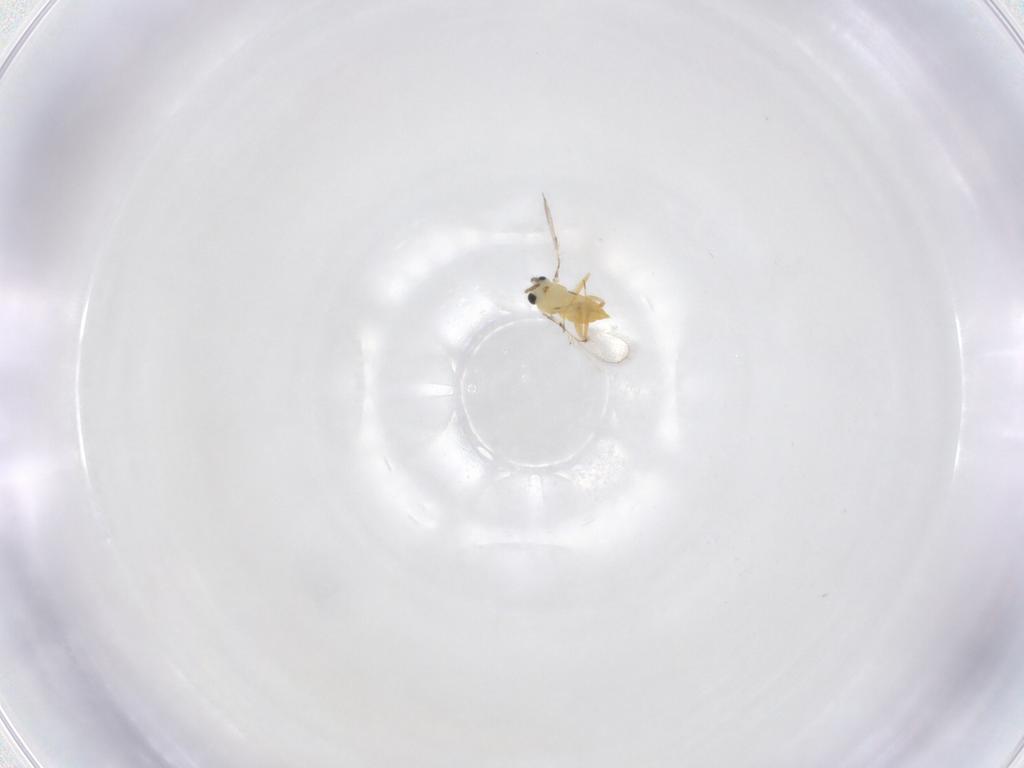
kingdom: Animalia
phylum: Arthropoda
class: Insecta
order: Hymenoptera
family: Trichogrammatidae
